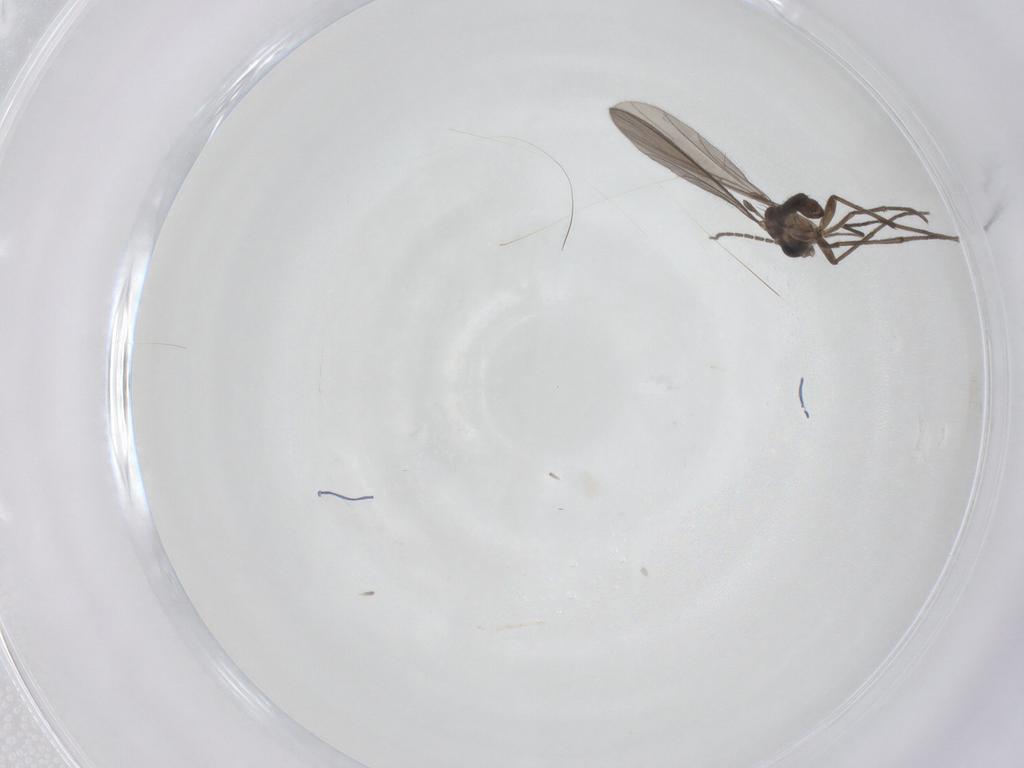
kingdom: Animalia
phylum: Arthropoda
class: Insecta
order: Diptera
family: Sciaridae
